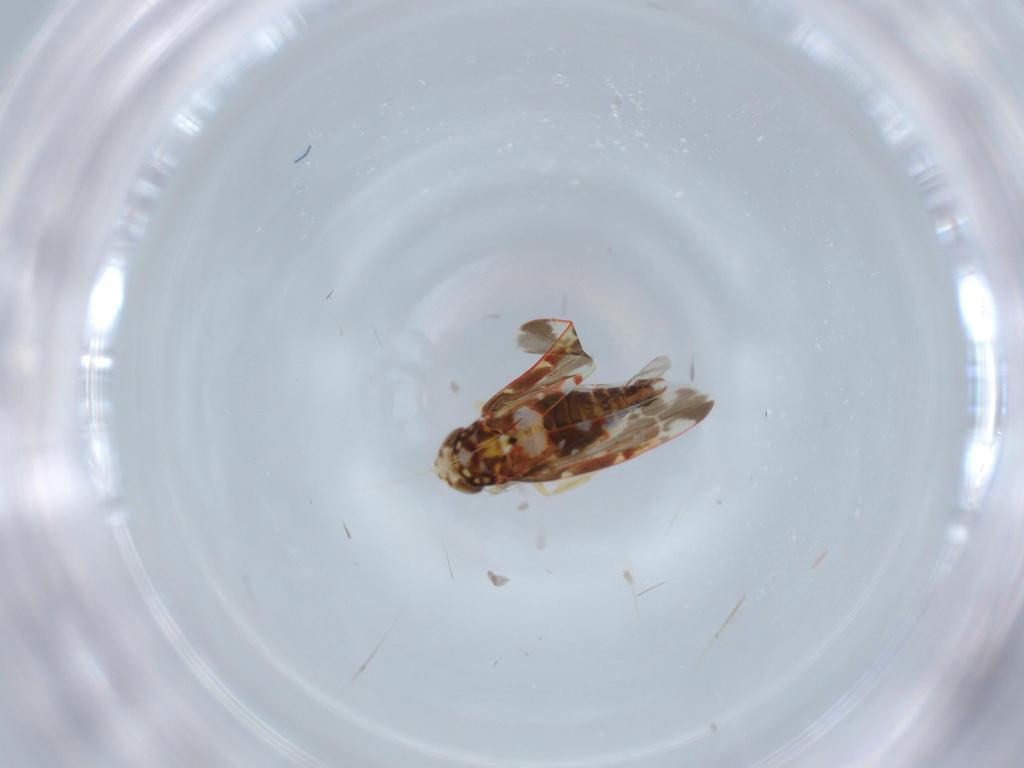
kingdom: Animalia
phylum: Arthropoda
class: Insecta
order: Hemiptera
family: Cicadellidae
